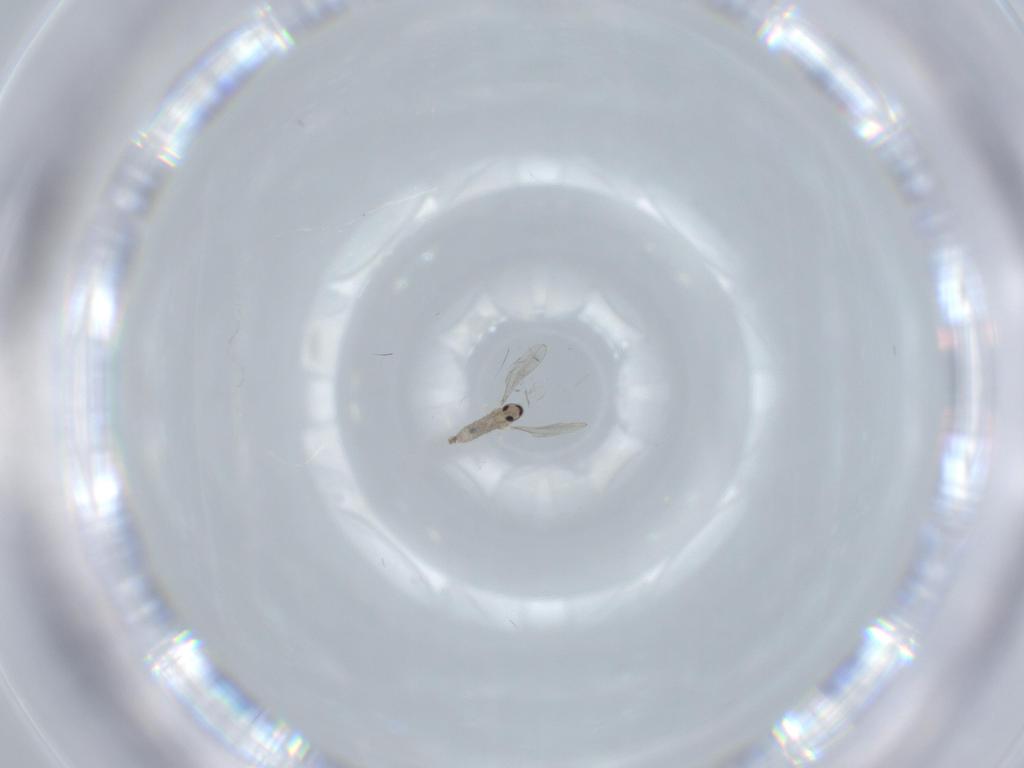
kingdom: Animalia
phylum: Arthropoda
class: Insecta
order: Diptera
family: Cecidomyiidae
